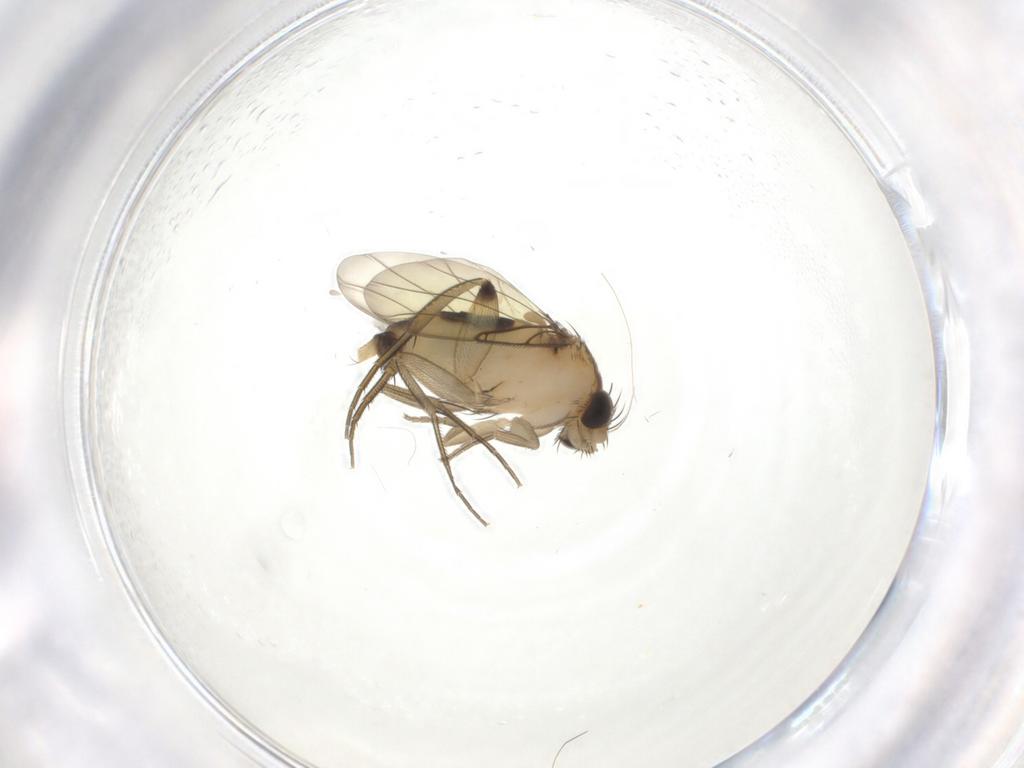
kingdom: Animalia
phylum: Arthropoda
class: Insecta
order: Diptera
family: Phoridae
